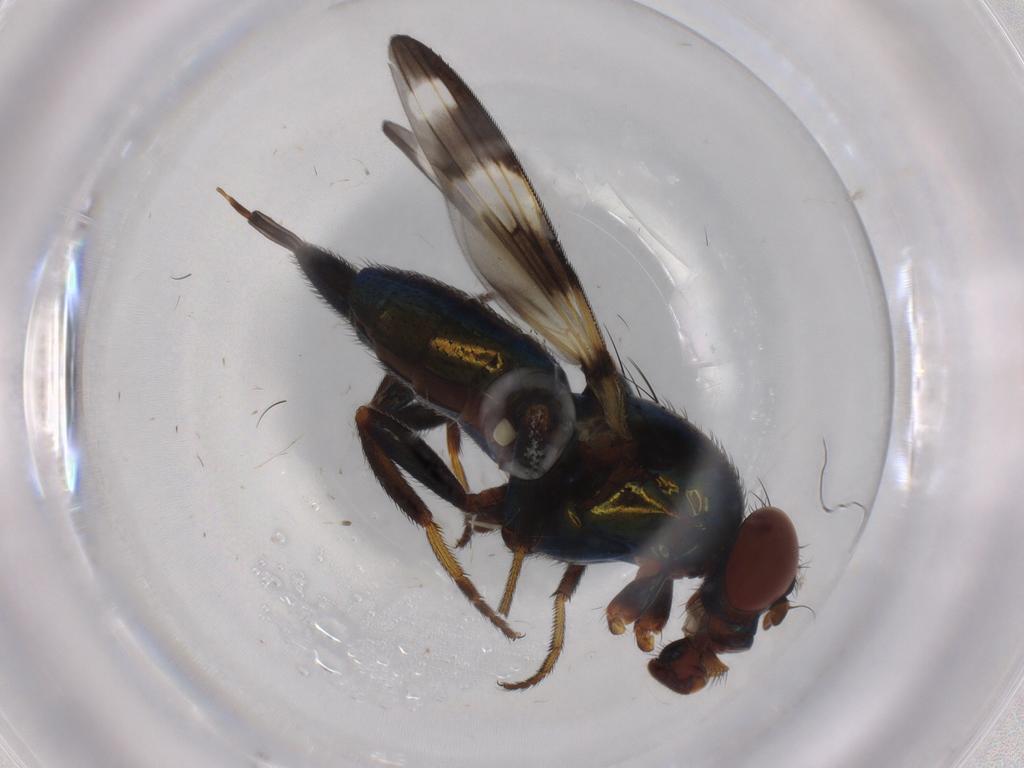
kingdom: Animalia
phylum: Arthropoda
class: Insecta
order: Diptera
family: Ulidiidae
